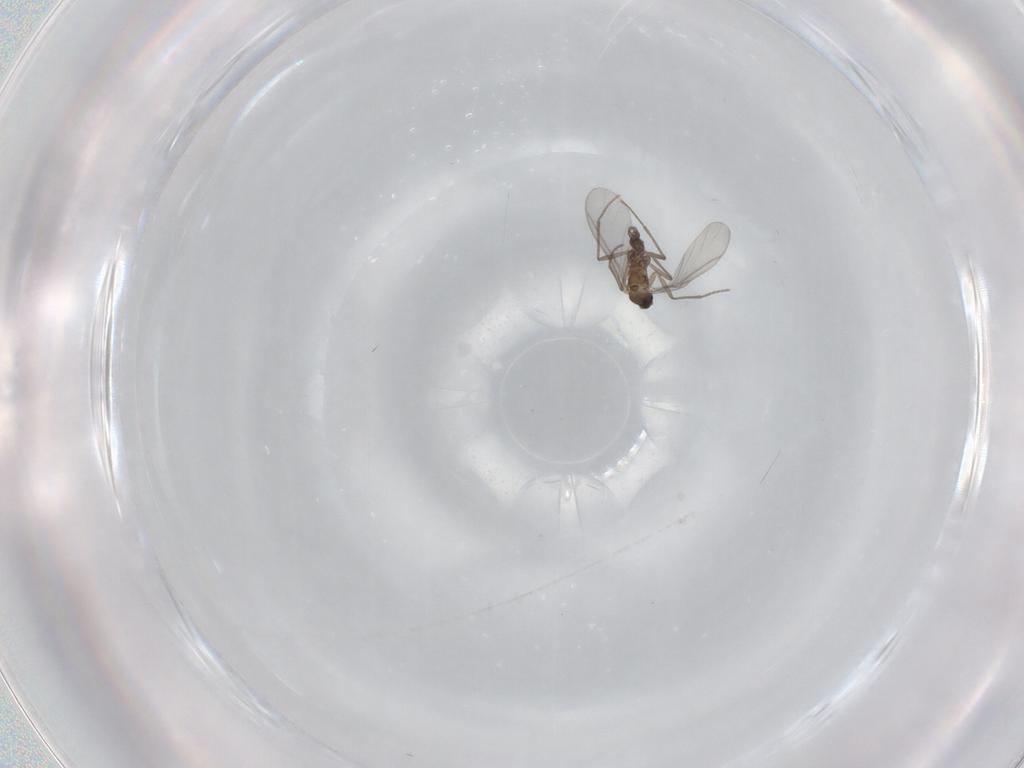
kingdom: Animalia
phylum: Arthropoda
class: Insecta
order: Diptera
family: Sciaridae
